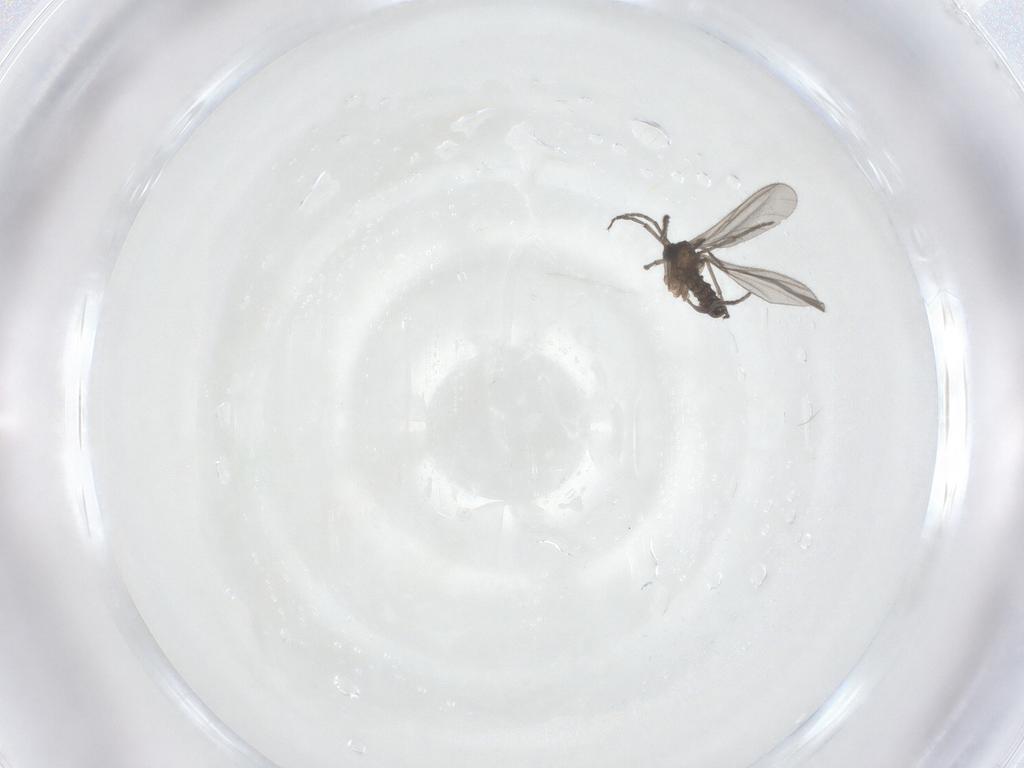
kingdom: Animalia
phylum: Arthropoda
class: Insecta
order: Diptera
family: Sciaridae
